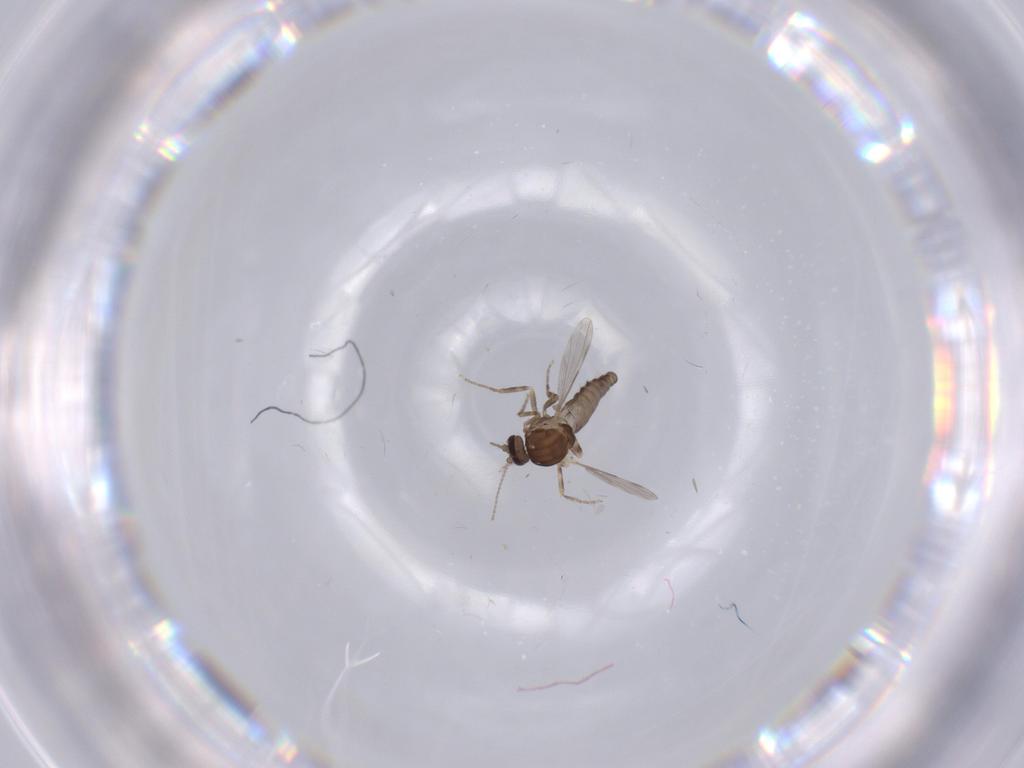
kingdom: Animalia
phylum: Arthropoda
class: Insecta
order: Diptera
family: Ceratopogonidae
